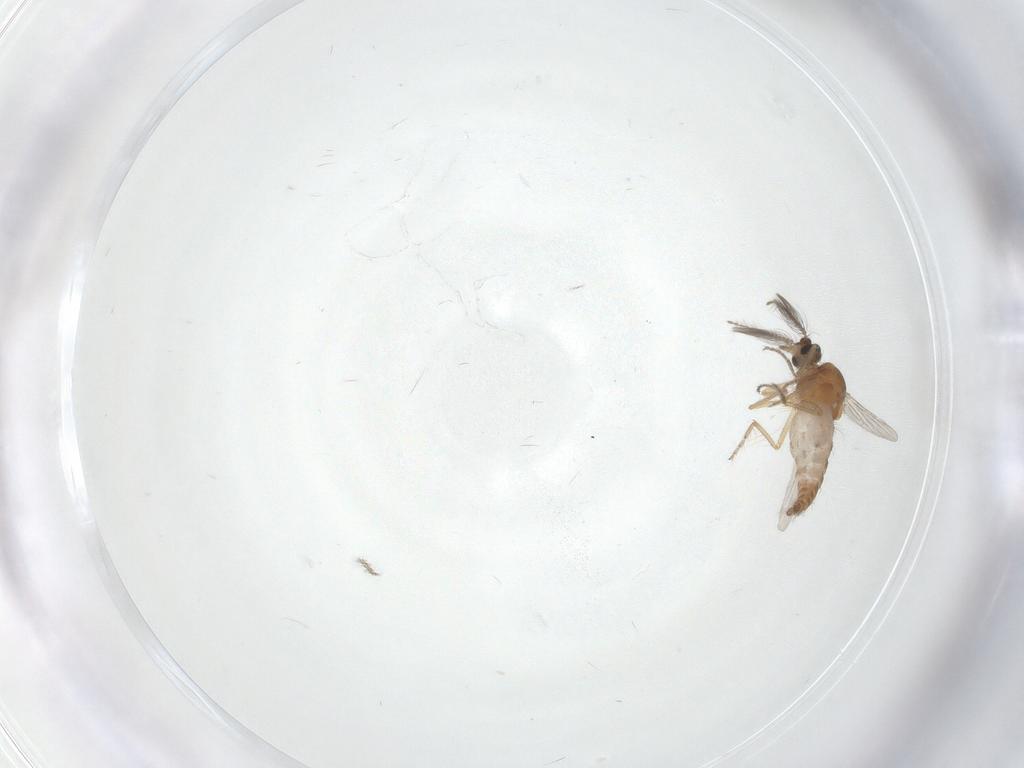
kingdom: Animalia
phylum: Arthropoda
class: Insecta
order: Diptera
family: Ceratopogonidae
